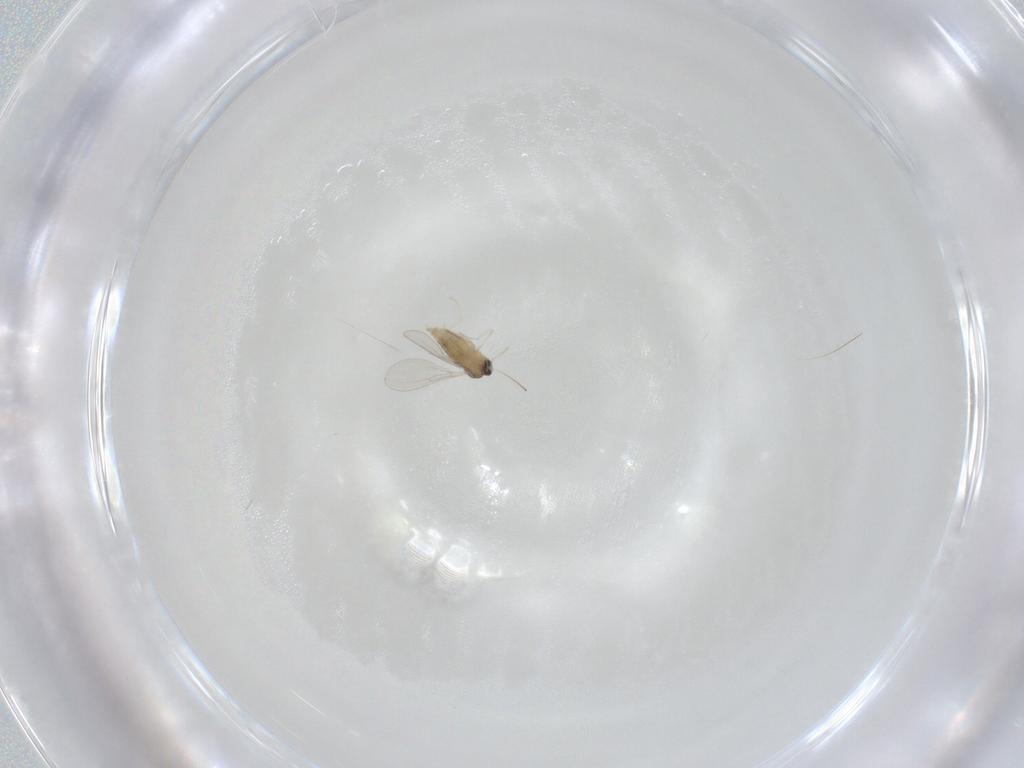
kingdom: Animalia
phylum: Arthropoda
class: Insecta
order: Diptera
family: Cecidomyiidae
